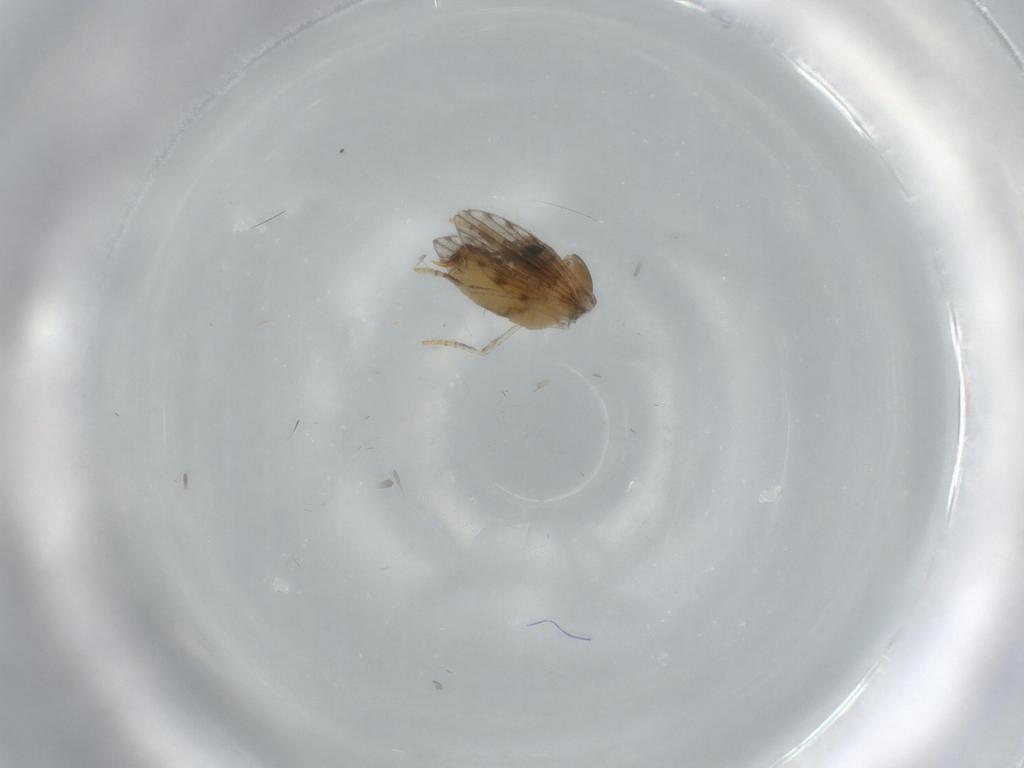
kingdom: Animalia
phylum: Arthropoda
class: Insecta
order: Diptera
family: Psychodidae
